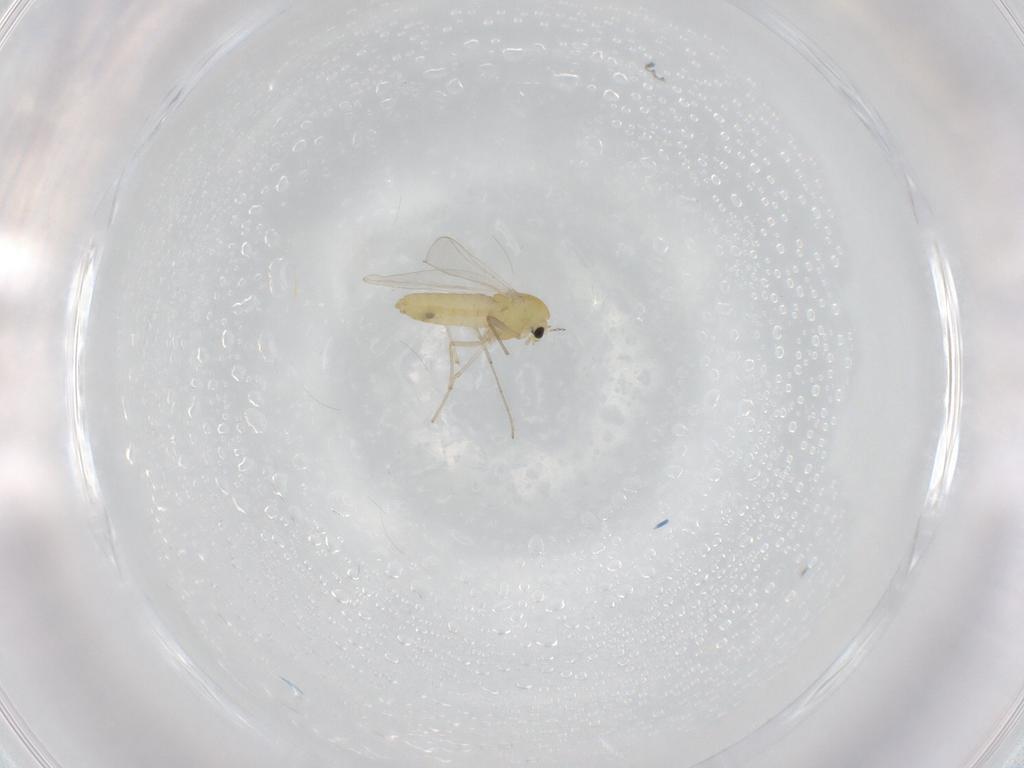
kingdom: Animalia
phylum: Arthropoda
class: Insecta
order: Diptera
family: Chironomidae
